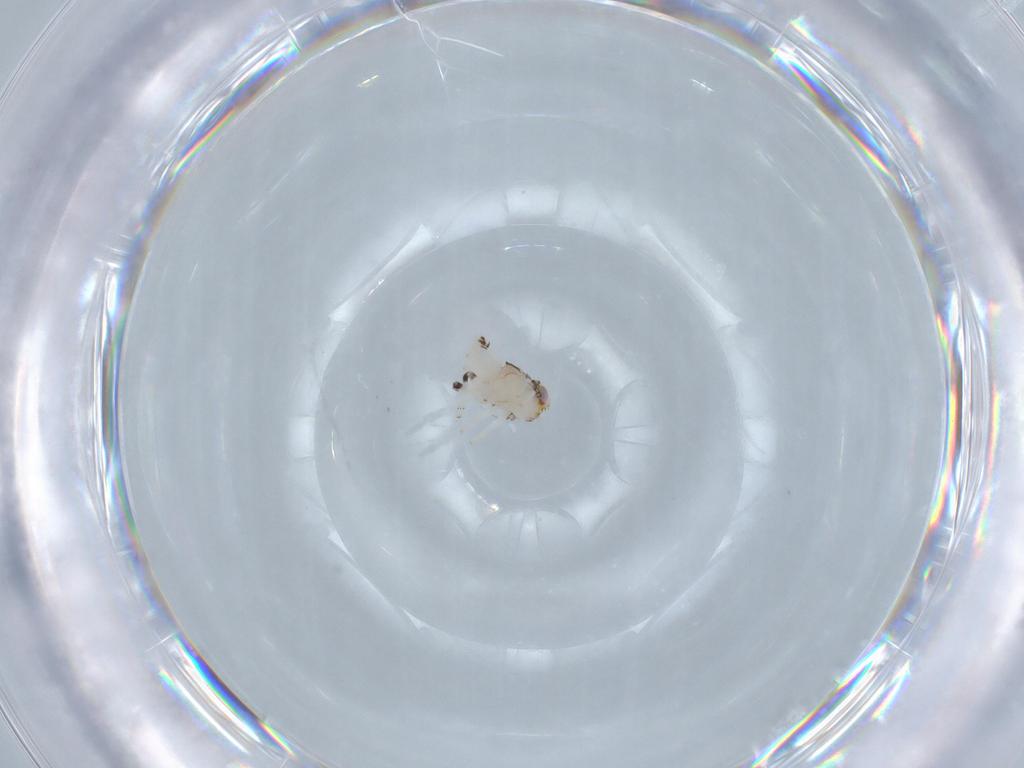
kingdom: Animalia
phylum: Arthropoda
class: Insecta
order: Hemiptera
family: Nogodinidae
